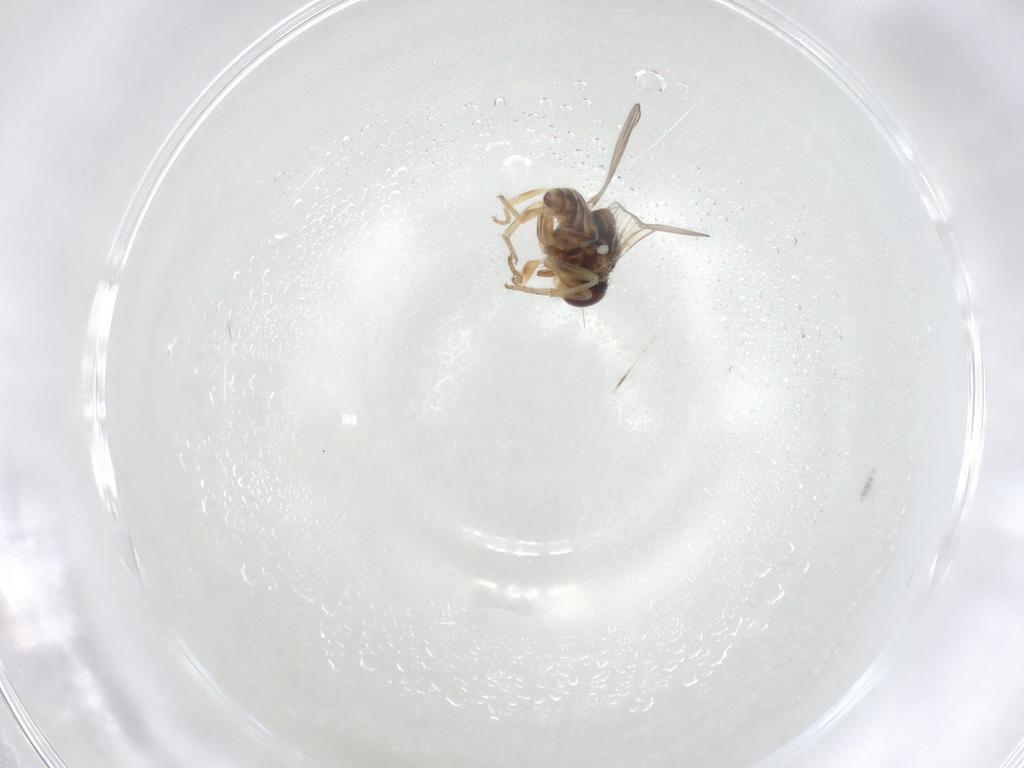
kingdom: Animalia
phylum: Arthropoda
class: Insecta
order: Diptera
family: Chloropidae
